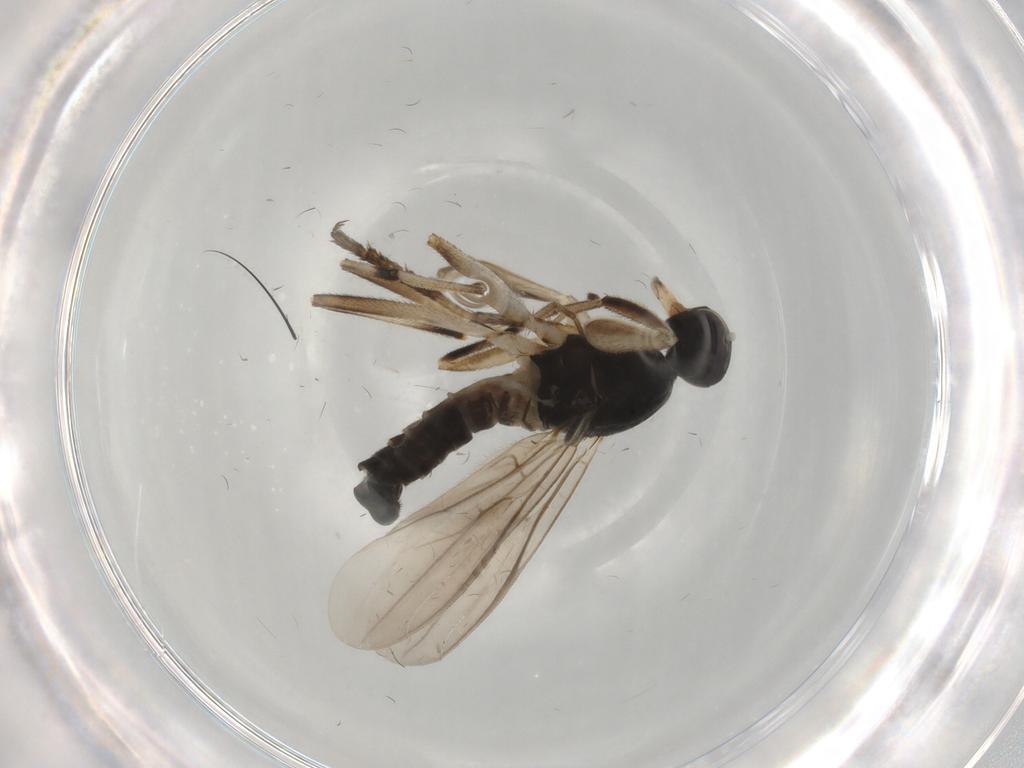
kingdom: Animalia
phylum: Arthropoda
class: Insecta
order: Diptera
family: Hybotidae
